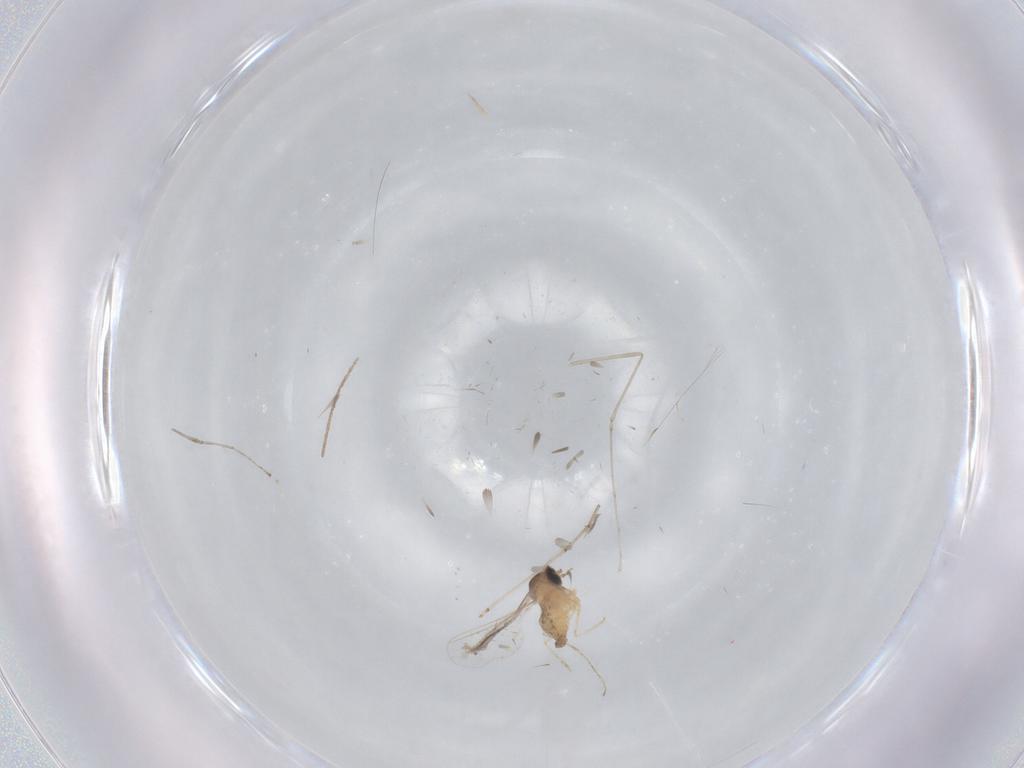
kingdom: Animalia
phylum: Arthropoda
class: Insecta
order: Diptera
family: Cecidomyiidae
